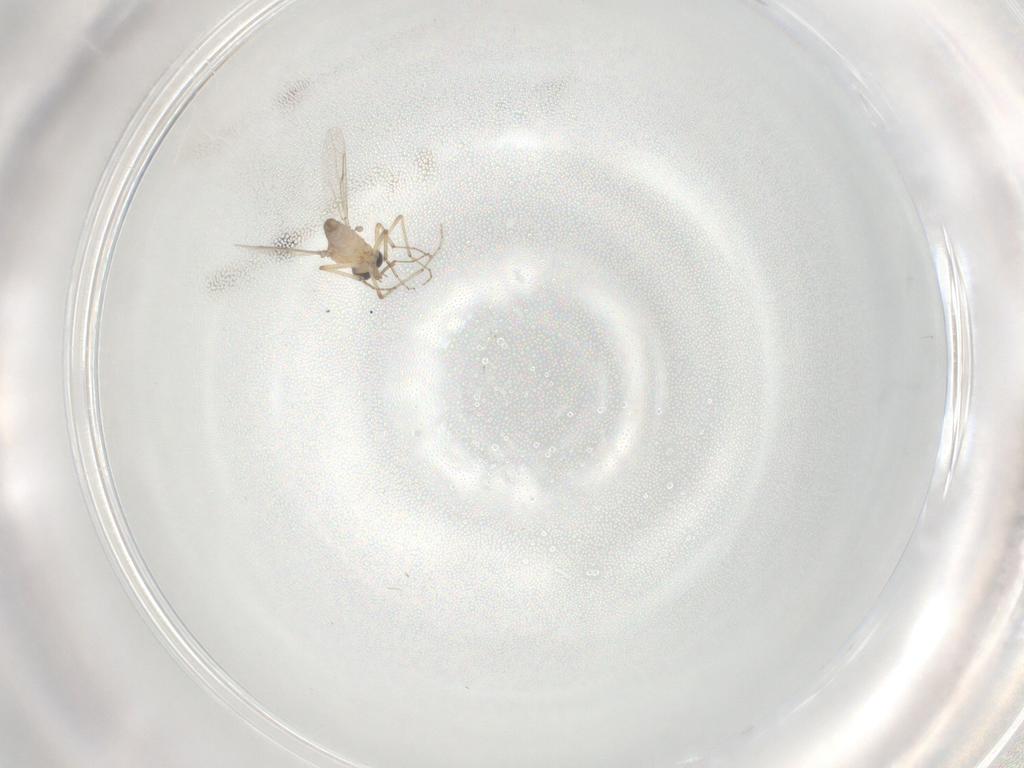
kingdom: Animalia
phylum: Arthropoda
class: Insecta
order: Diptera
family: Ceratopogonidae
